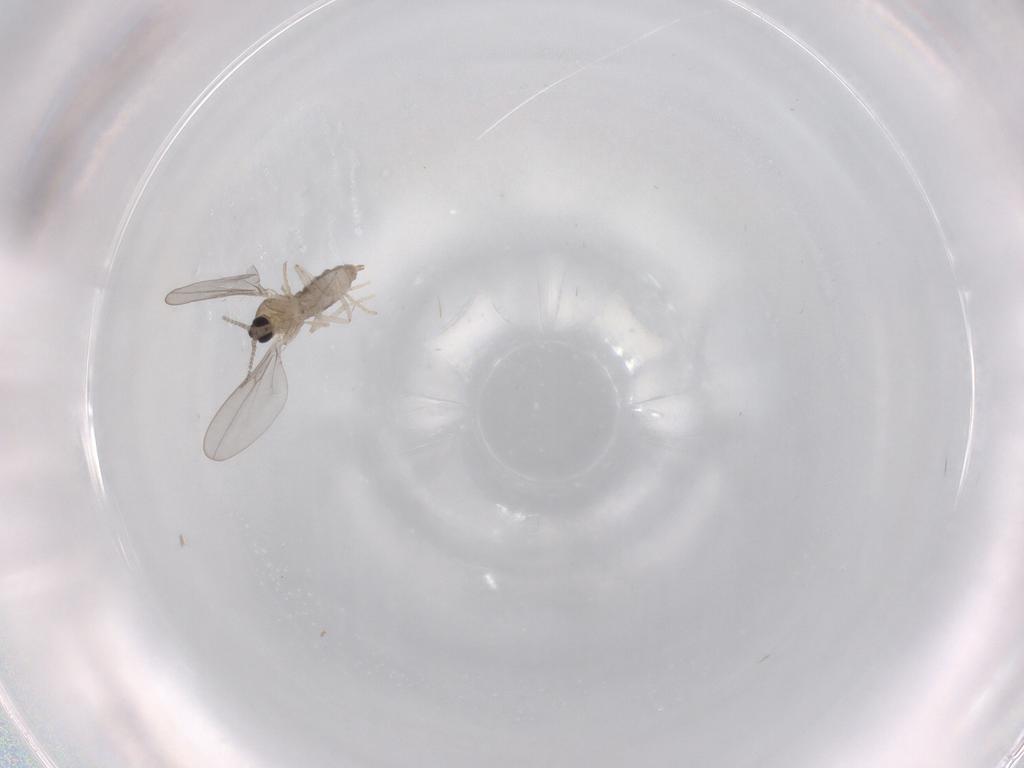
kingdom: Animalia
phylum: Arthropoda
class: Insecta
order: Diptera
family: Cecidomyiidae
